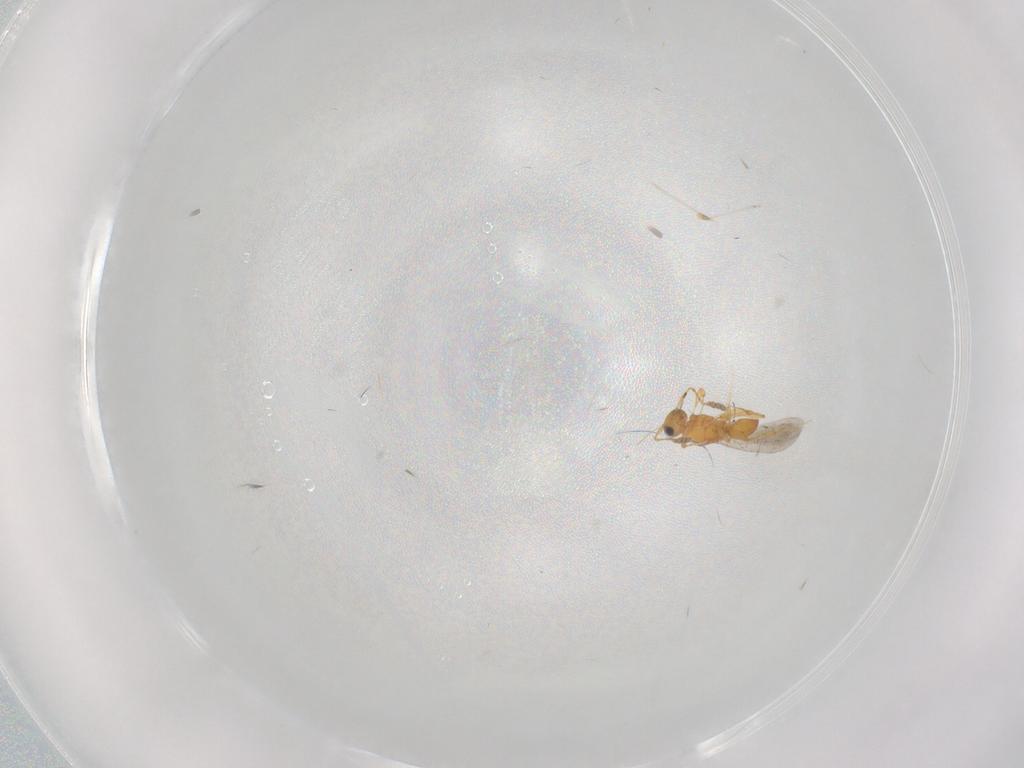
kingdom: Animalia
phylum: Arthropoda
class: Insecta
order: Hymenoptera
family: Platygastridae
